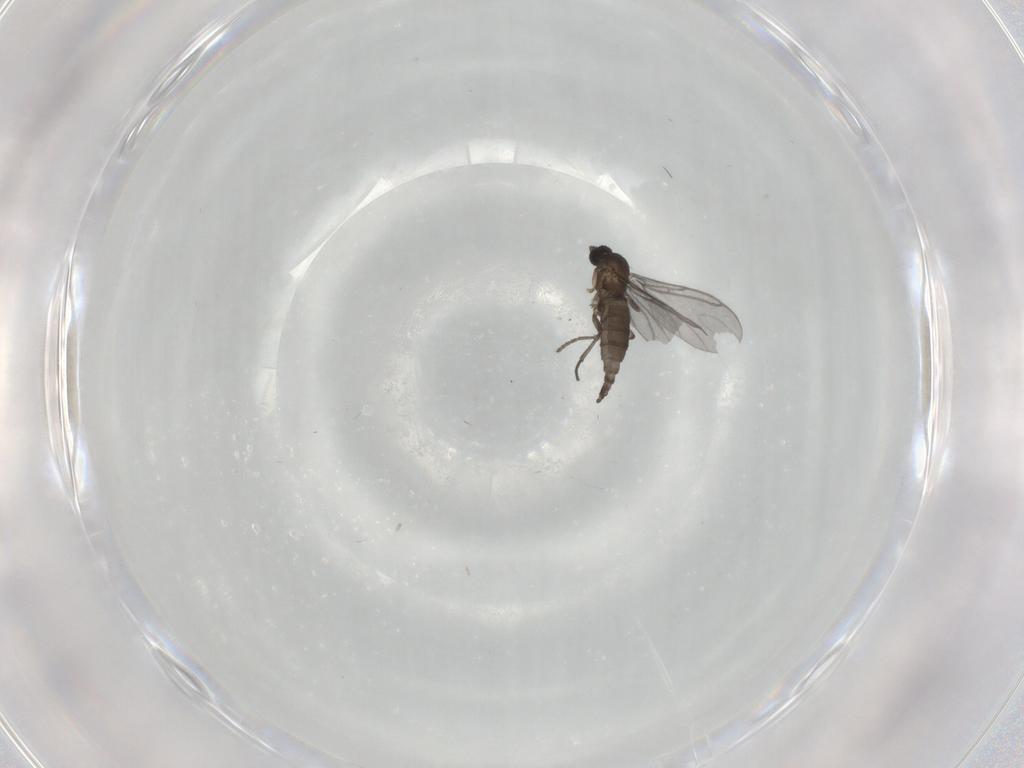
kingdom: Animalia
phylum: Arthropoda
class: Insecta
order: Diptera
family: Sciaridae
